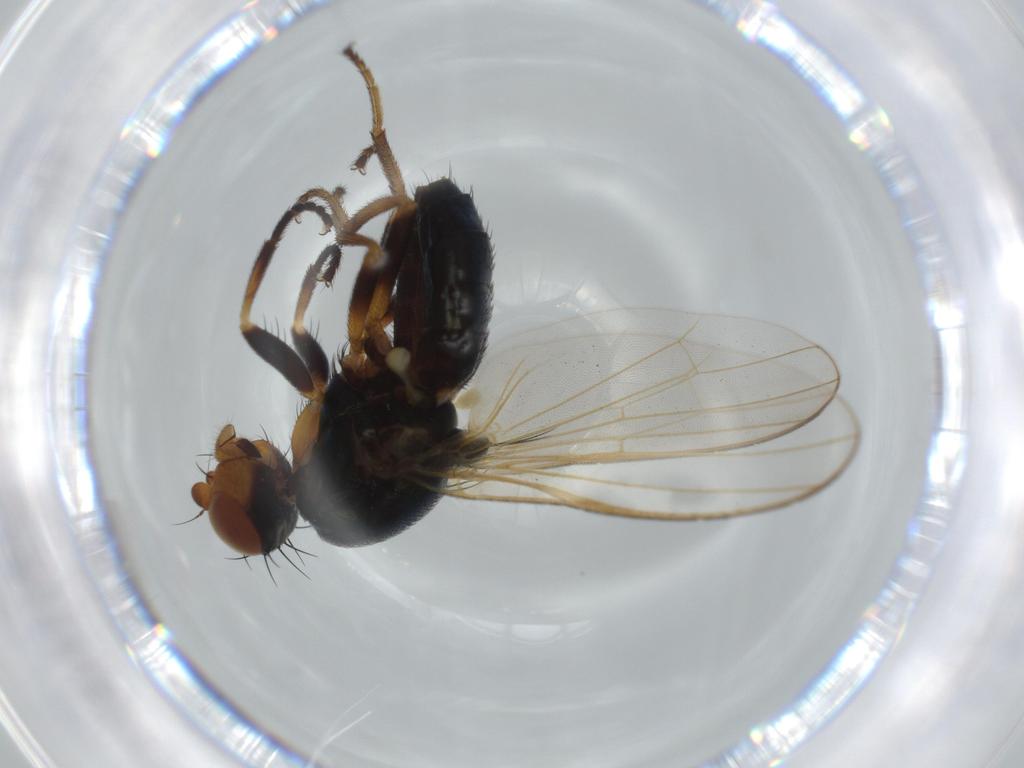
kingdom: Animalia
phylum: Arthropoda
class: Insecta
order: Diptera
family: Piophilidae
